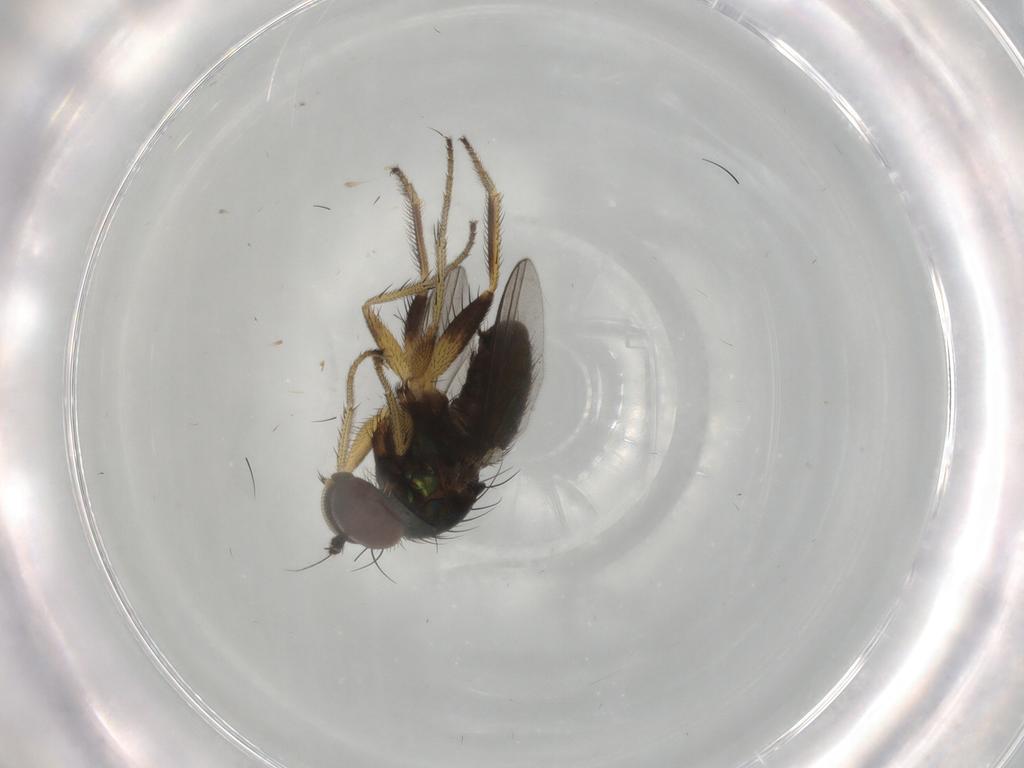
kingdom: Animalia
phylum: Arthropoda
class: Insecta
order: Diptera
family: Dolichopodidae
